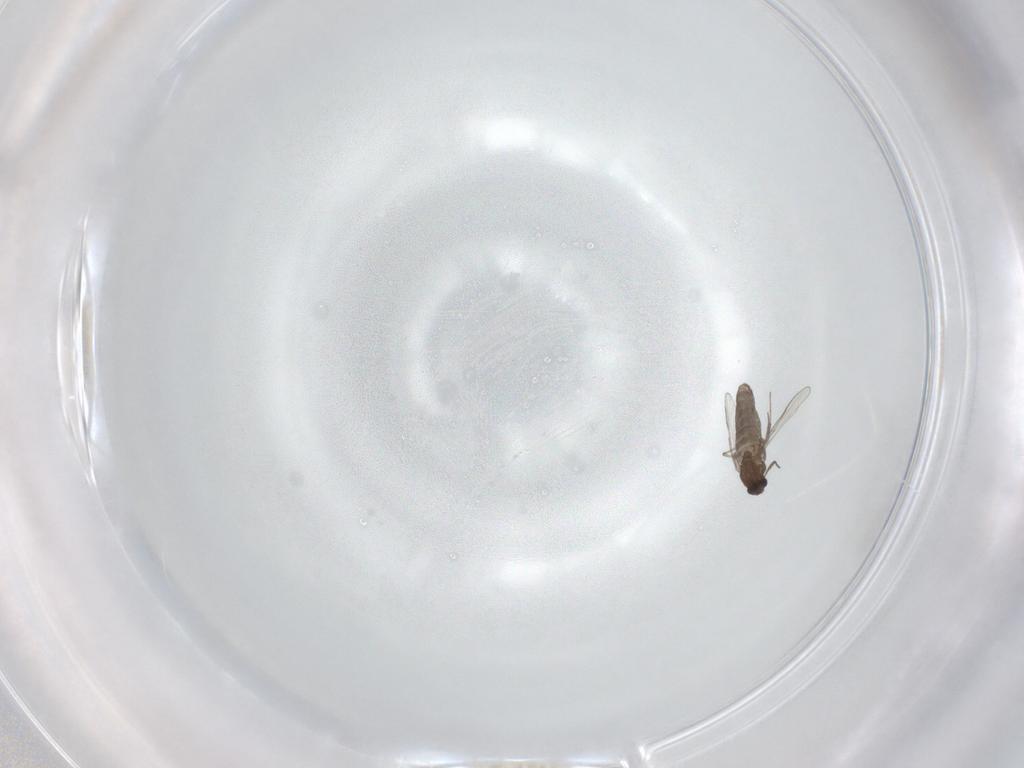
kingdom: Animalia
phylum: Arthropoda
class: Insecta
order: Diptera
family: Chironomidae
